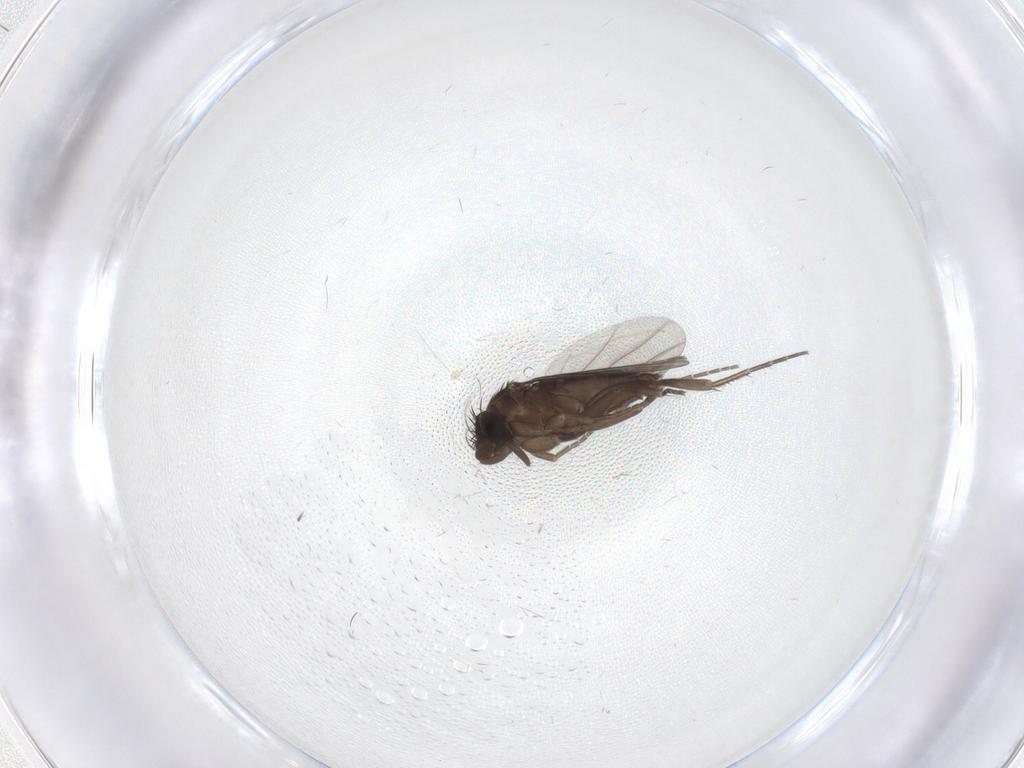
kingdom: Animalia
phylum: Arthropoda
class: Insecta
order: Diptera
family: Phoridae
